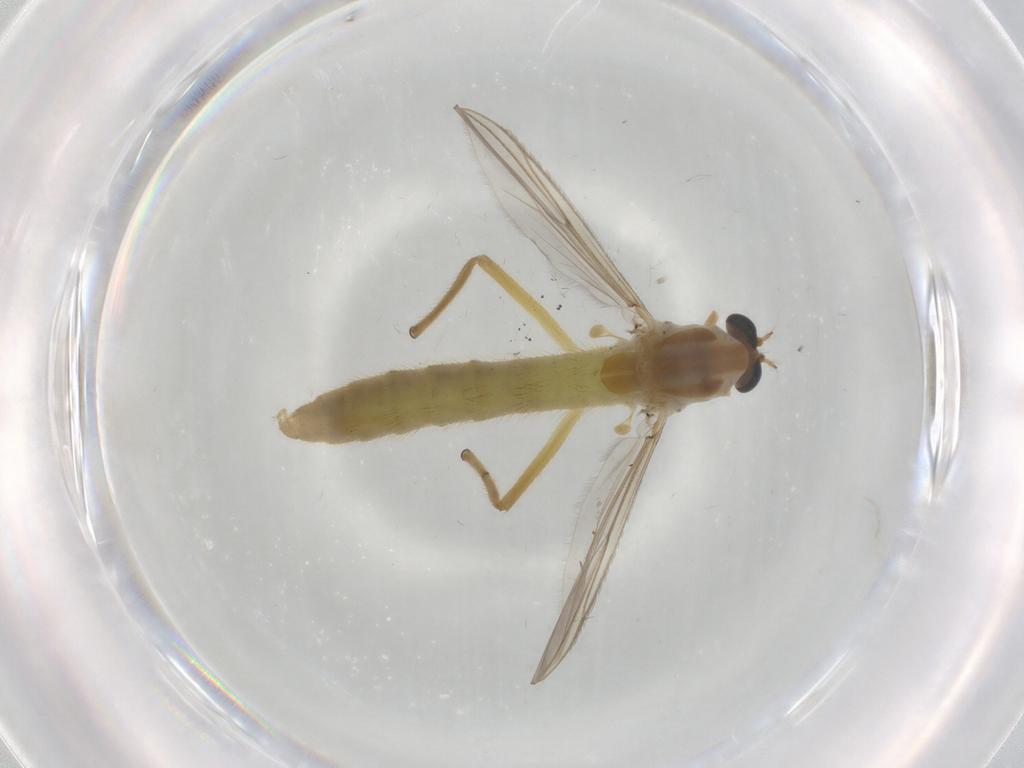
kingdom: Animalia
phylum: Arthropoda
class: Insecta
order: Diptera
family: Chironomidae
